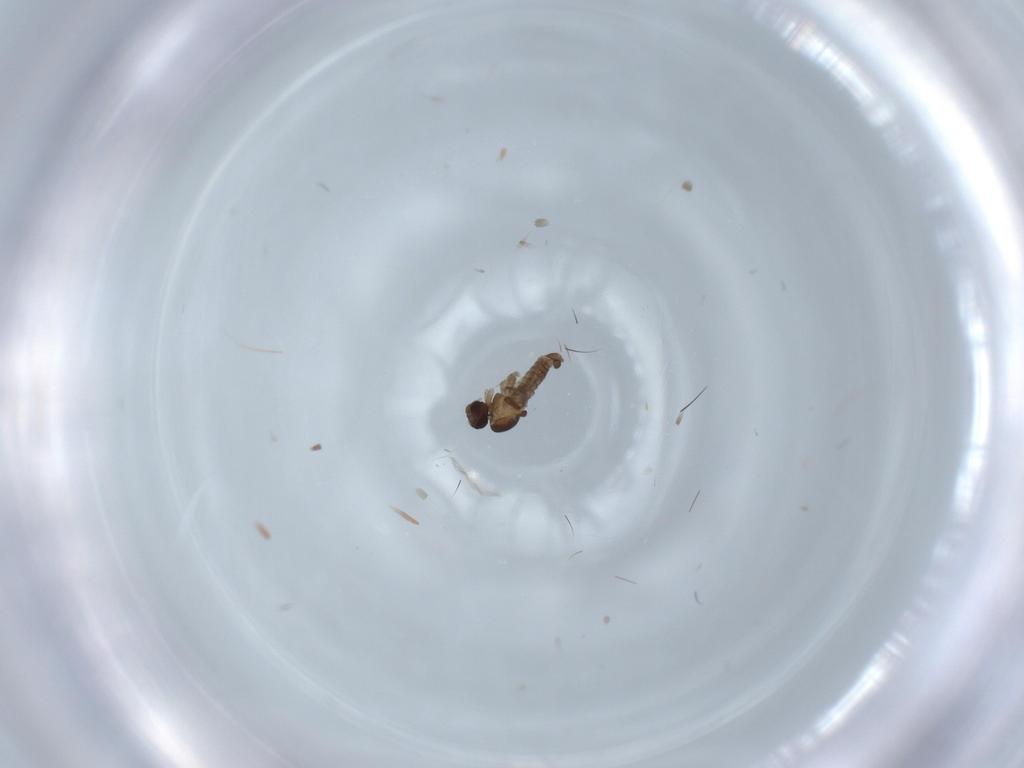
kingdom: Animalia
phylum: Arthropoda
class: Insecta
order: Diptera
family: Cecidomyiidae
